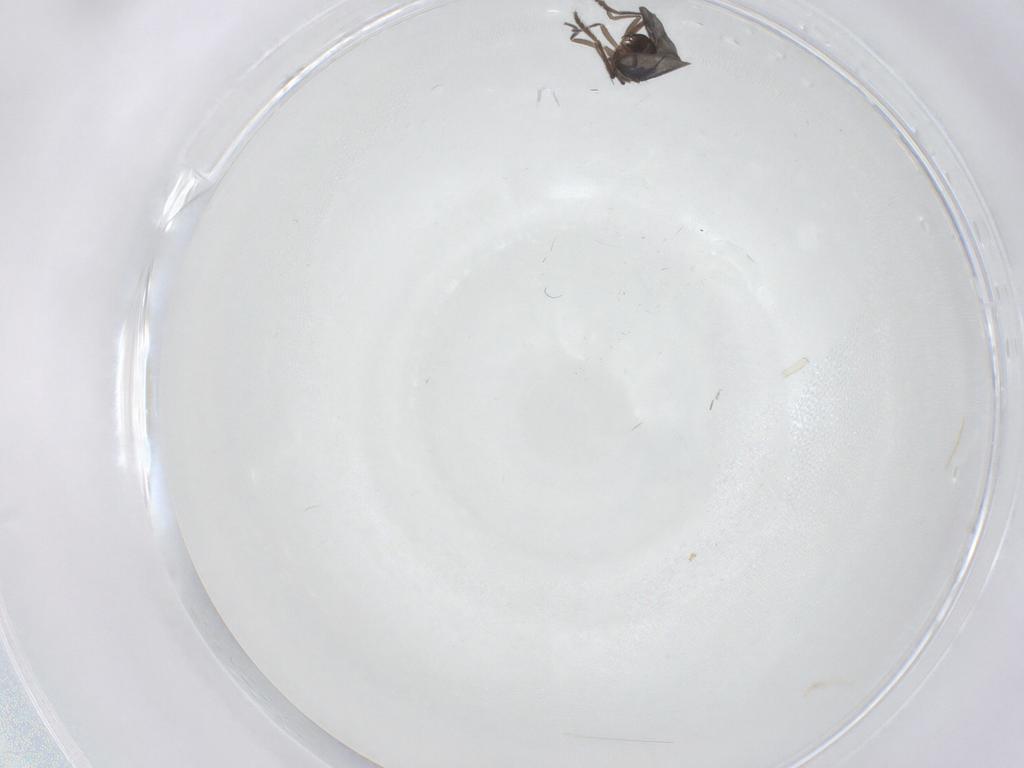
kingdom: Animalia
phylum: Arthropoda
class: Insecta
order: Diptera
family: Phoridae
